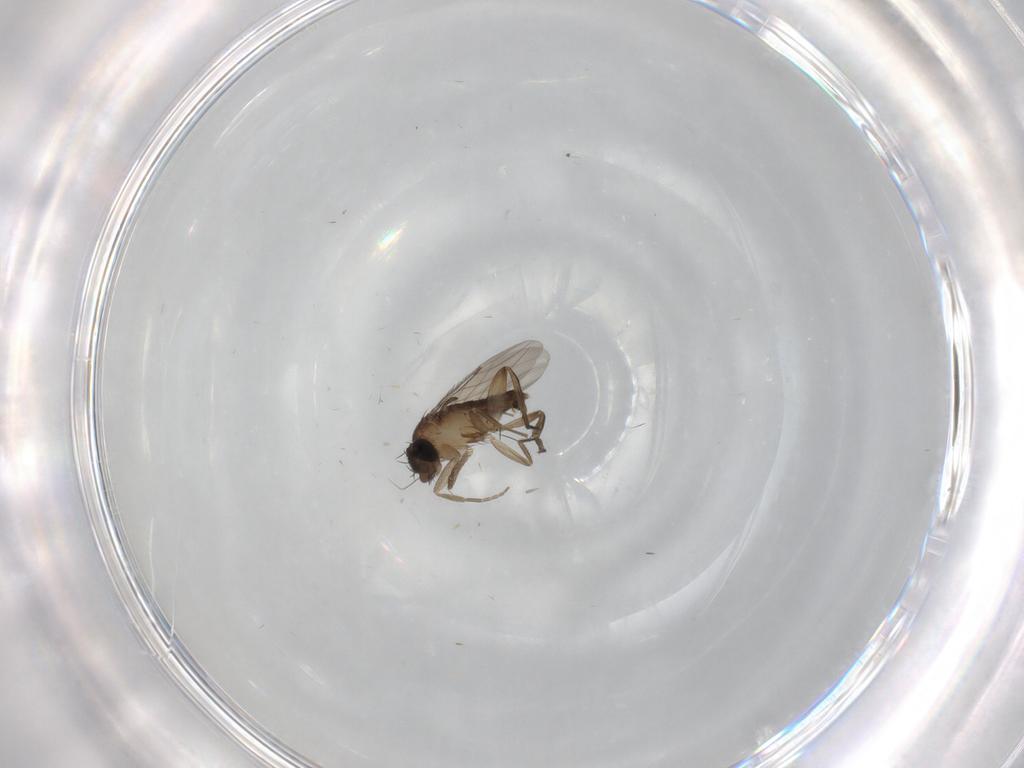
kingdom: Animalia
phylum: Arthropoda
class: Insecta
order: Diptera
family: Phoridae
